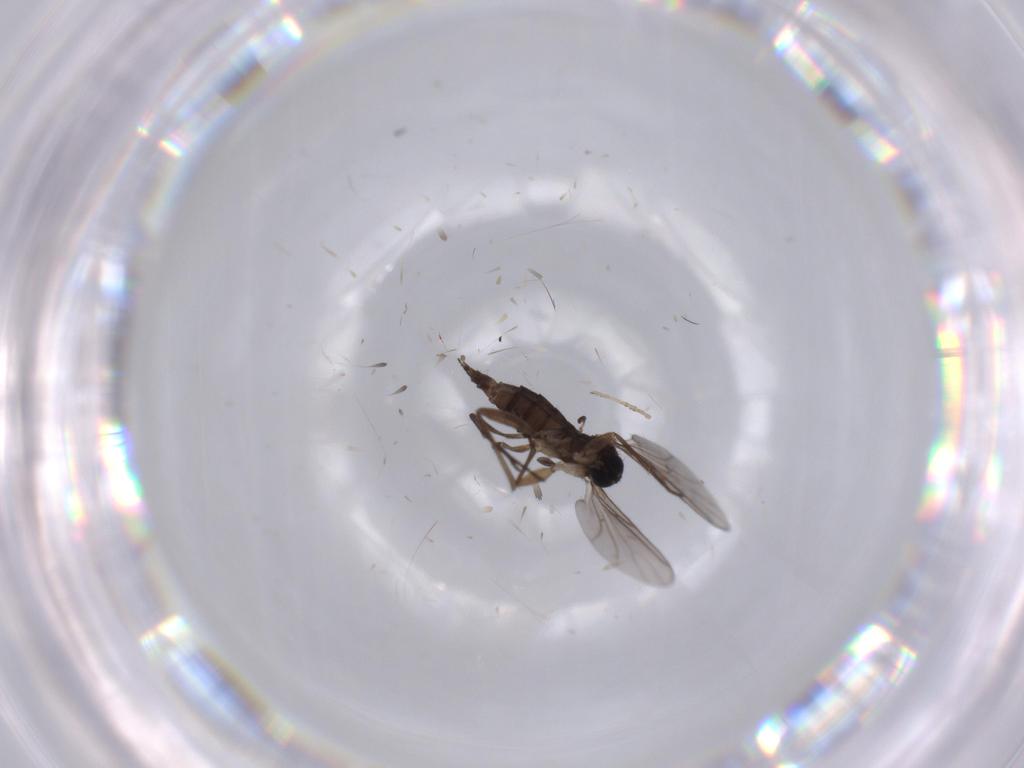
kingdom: Animalia
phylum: Arthropoda
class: Insecta
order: Diptera
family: Sciaridae
